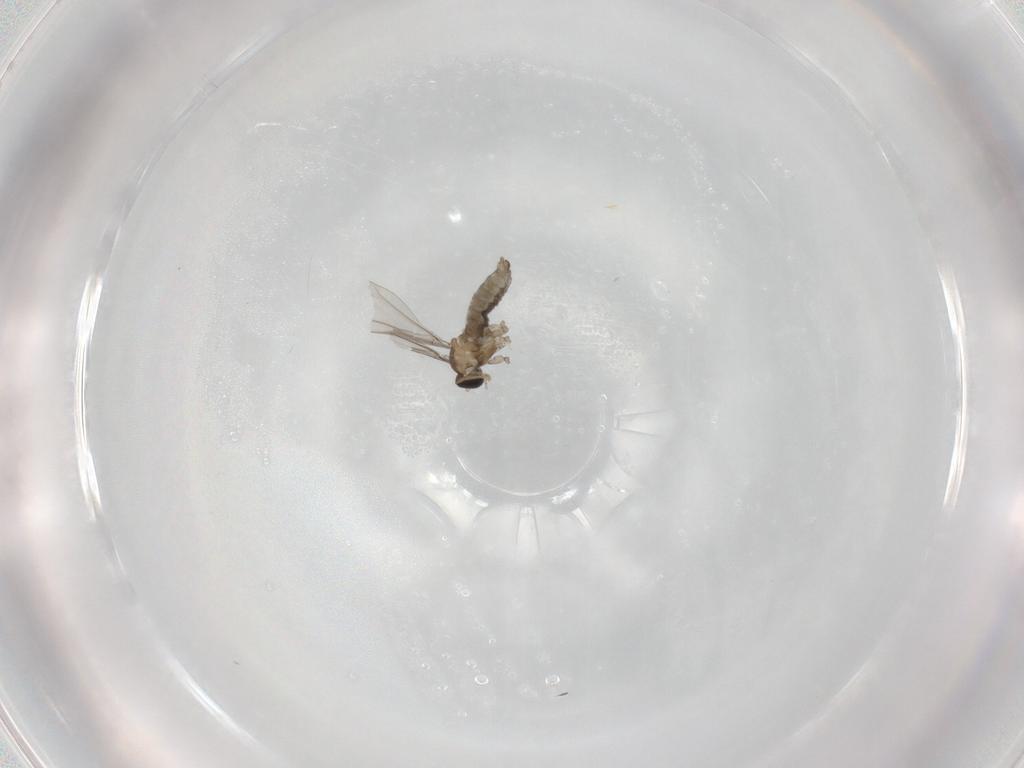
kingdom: Animalia
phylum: Arthropoda
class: Insecta
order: Diptera
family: Cecidomyiidae
